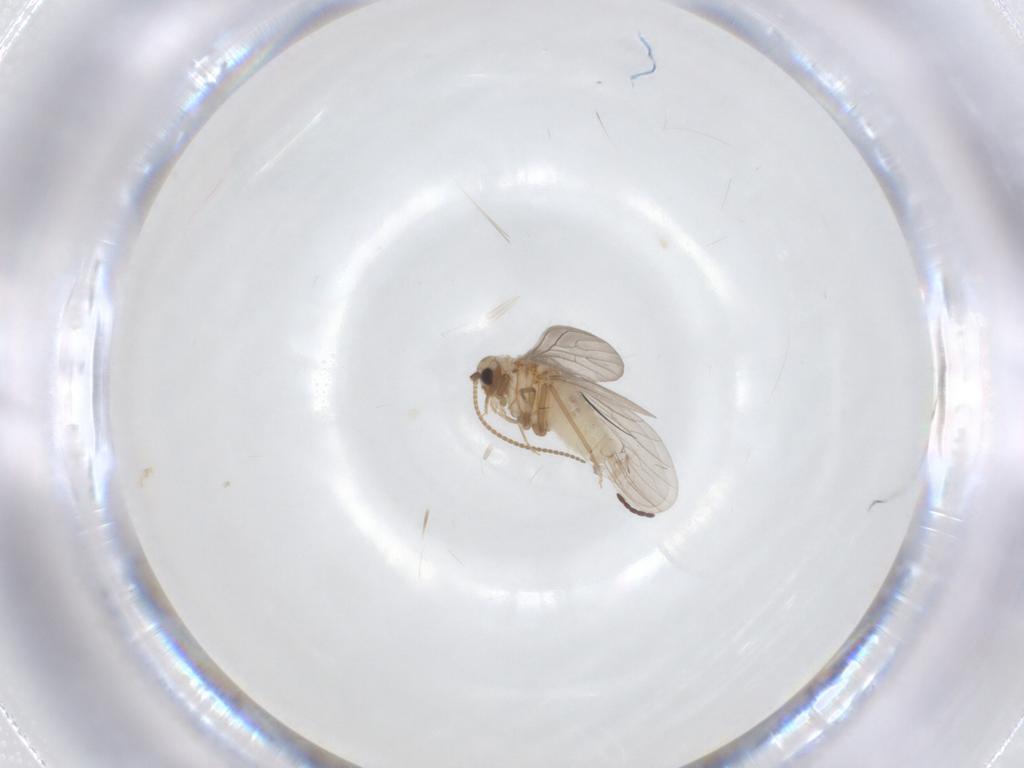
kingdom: Animalia
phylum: Arthropoda
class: Insecta
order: Neuroptera
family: Coniopterygidae
